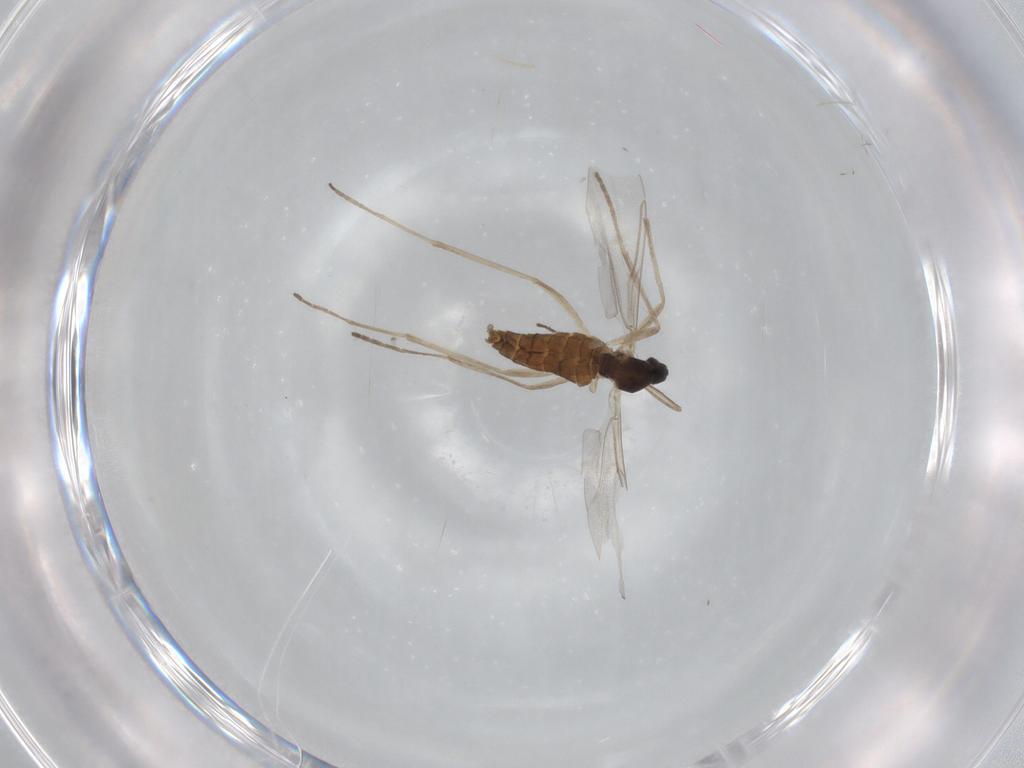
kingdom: Animalia
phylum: Arthropoda
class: Insecta
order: Diptera
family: Cecidomyiidae
